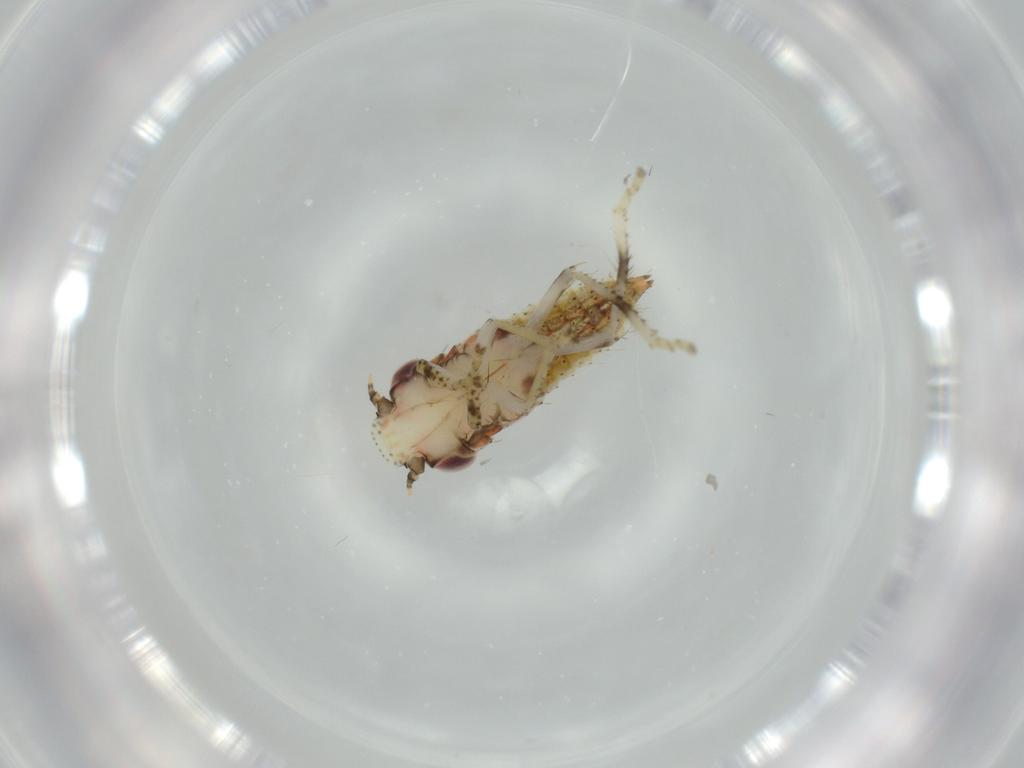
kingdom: Animalia
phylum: Arthropoda
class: Insecta
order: Hemiptera
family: Cicadellidae
